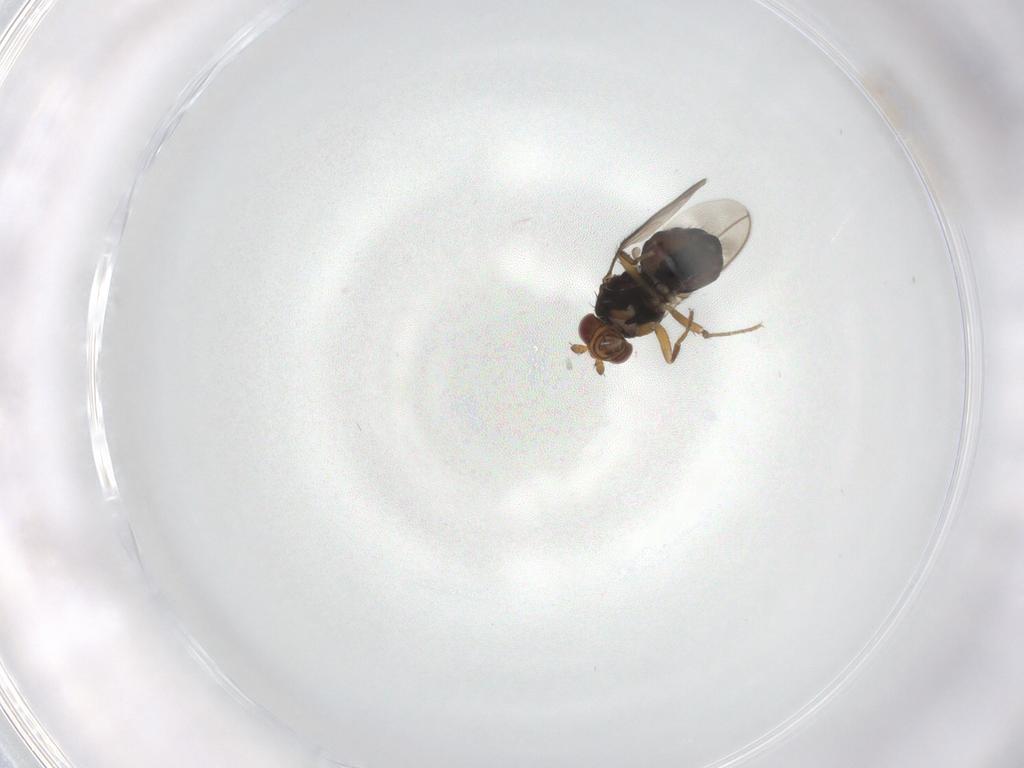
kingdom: Animalia
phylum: Arthropoda
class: Insecta
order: Diptera
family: Sphaeroceridae
